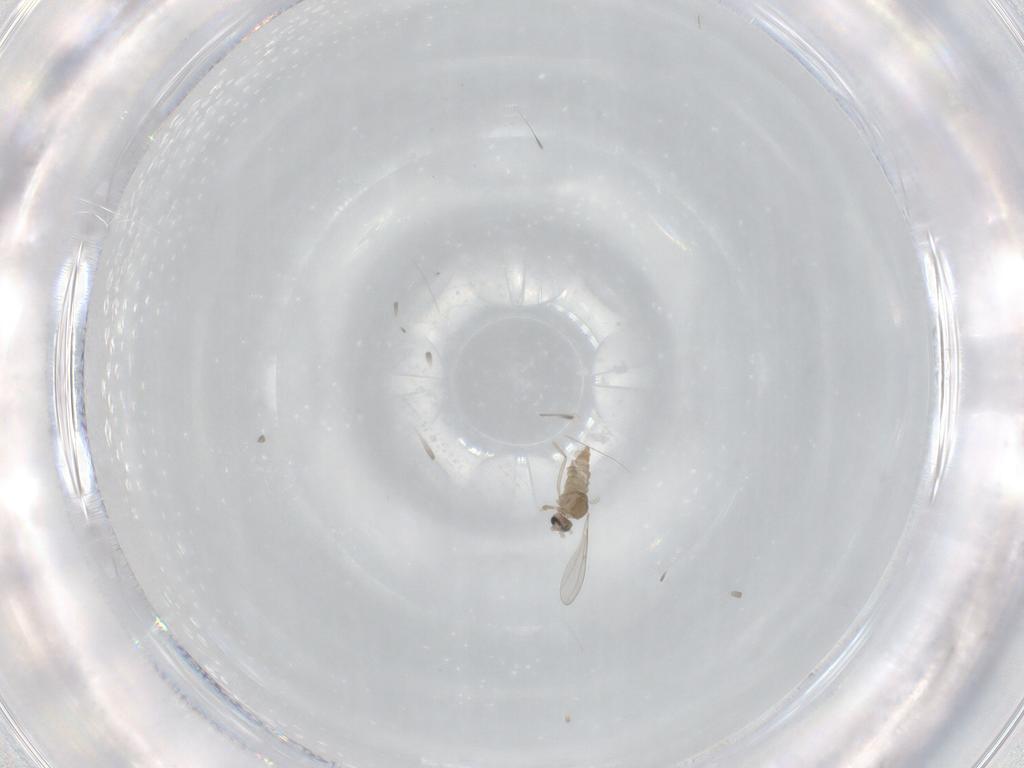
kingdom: Animalia
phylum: Arthropoda
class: Insecta
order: Diptera
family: Cecidomyiidae
